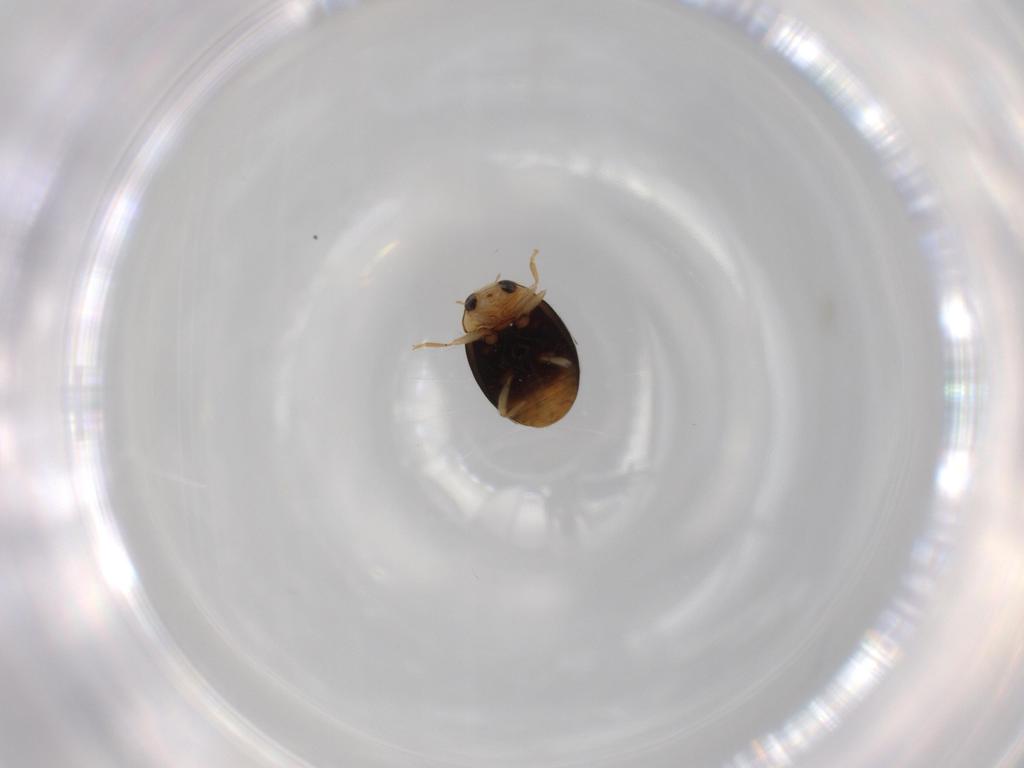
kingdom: Animalia
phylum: Arthropoda
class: Insecta
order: Coleoptera
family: Coccinellidae
